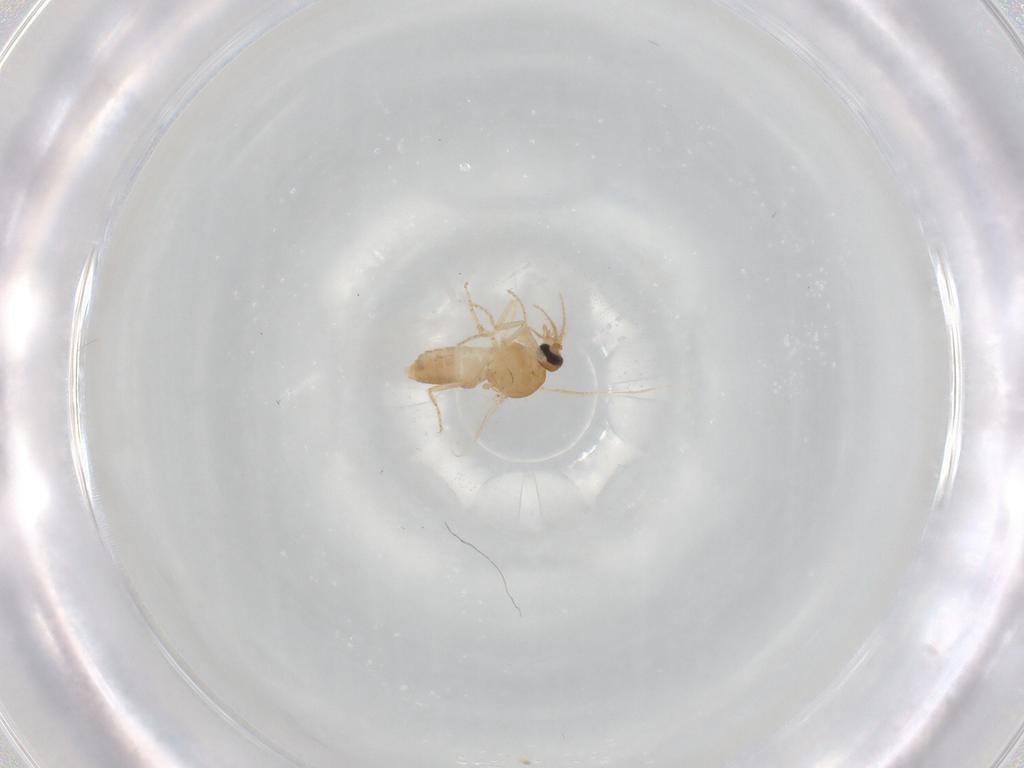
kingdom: Animalia
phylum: Arthropoda
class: Insecta
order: Diptera
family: Ceratopogonidae
